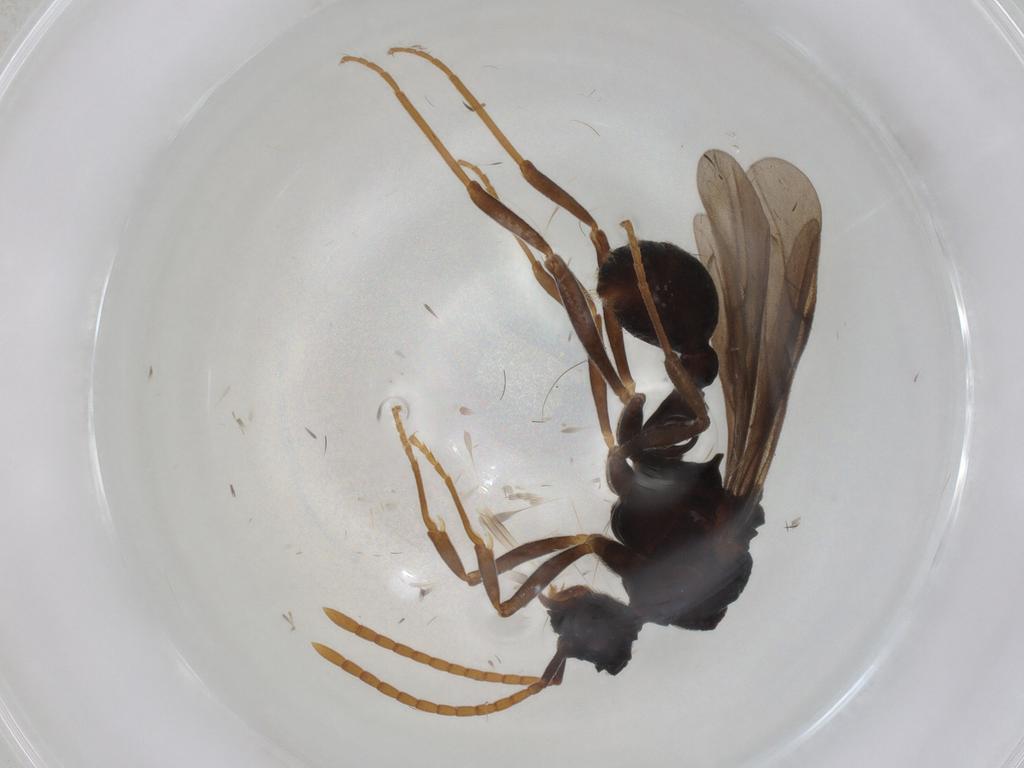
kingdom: Animalia
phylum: Arthropoda
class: Insecta
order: Hymenoptera
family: Formicidae
